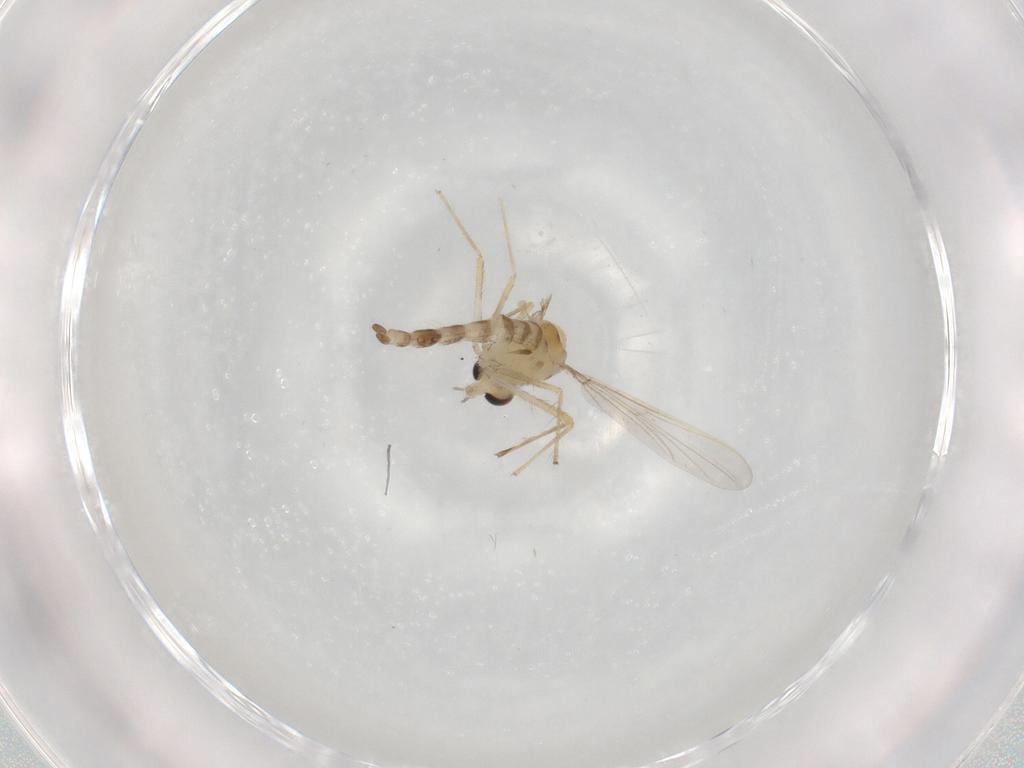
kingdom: Animalia
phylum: Arthropoda
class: Insecta
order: Diptera
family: Chironomidae
